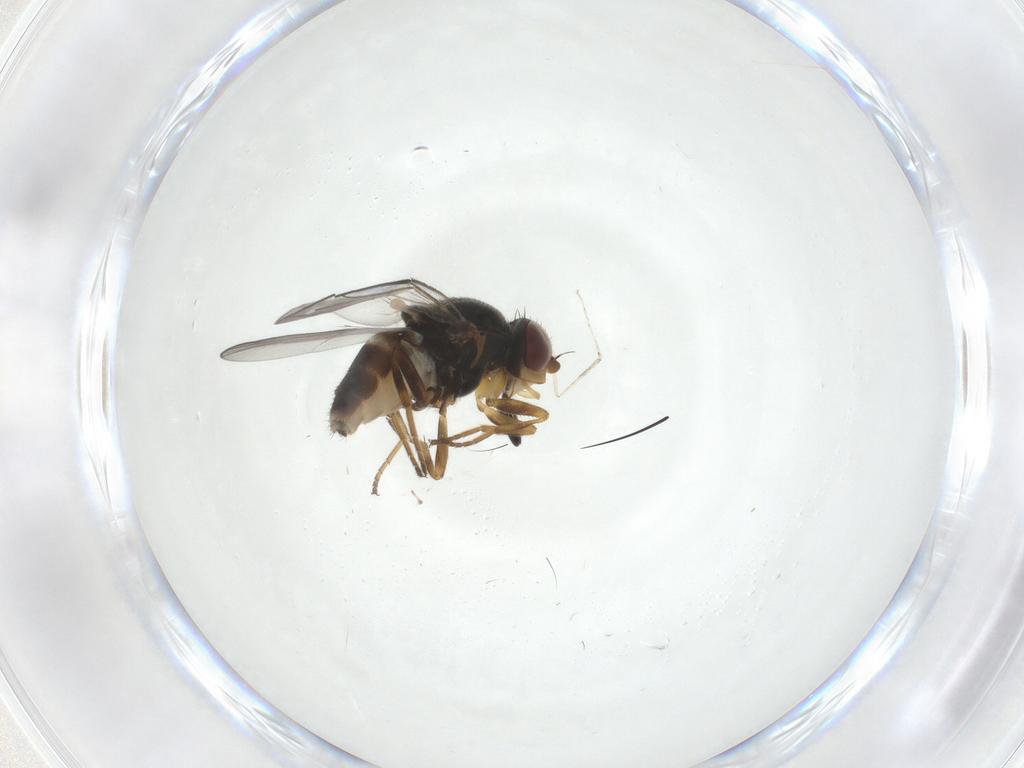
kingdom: Animalia
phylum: Arthropoda
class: Insecta
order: Diptera
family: Chloropidae
